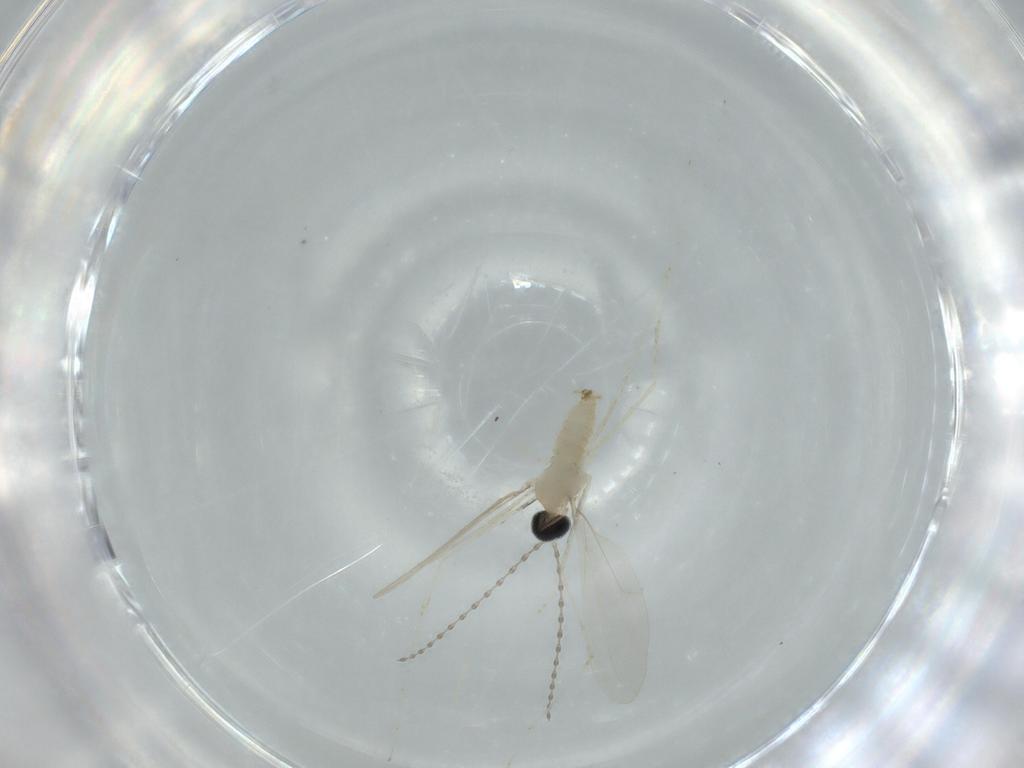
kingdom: Animalia
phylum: Arthropoda
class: Insecta
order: Diptera
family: Cecidomyiidae
